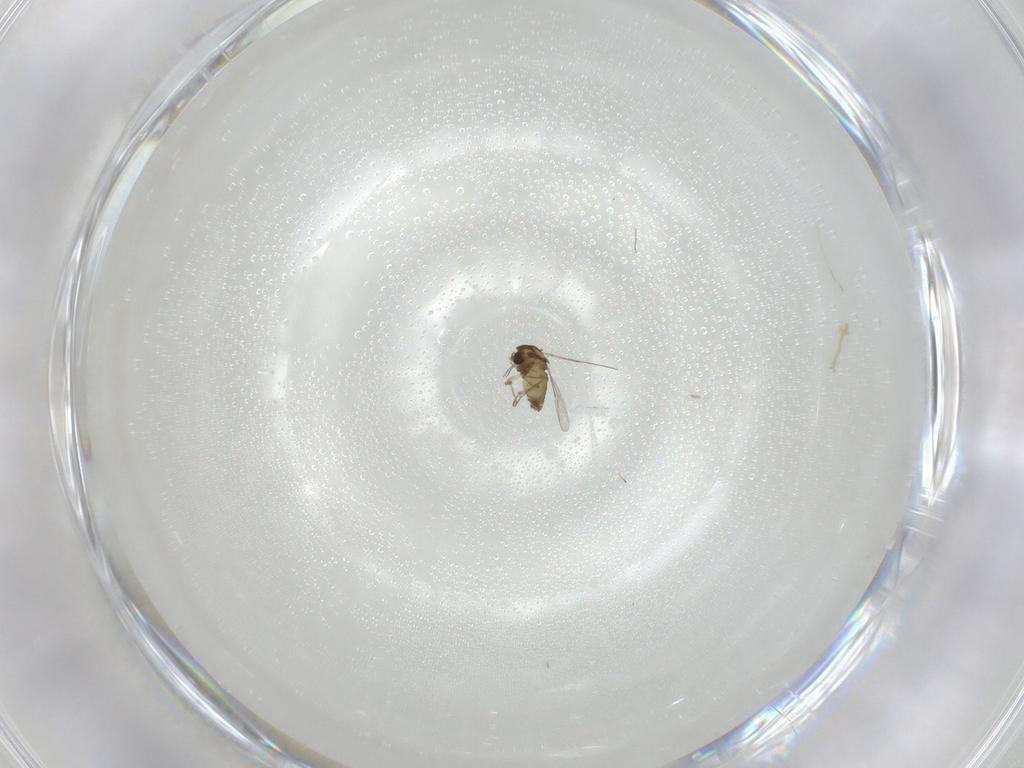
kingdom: Animalia
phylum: Arthropoda
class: Insecta
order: Diptera
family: Chironomidae
